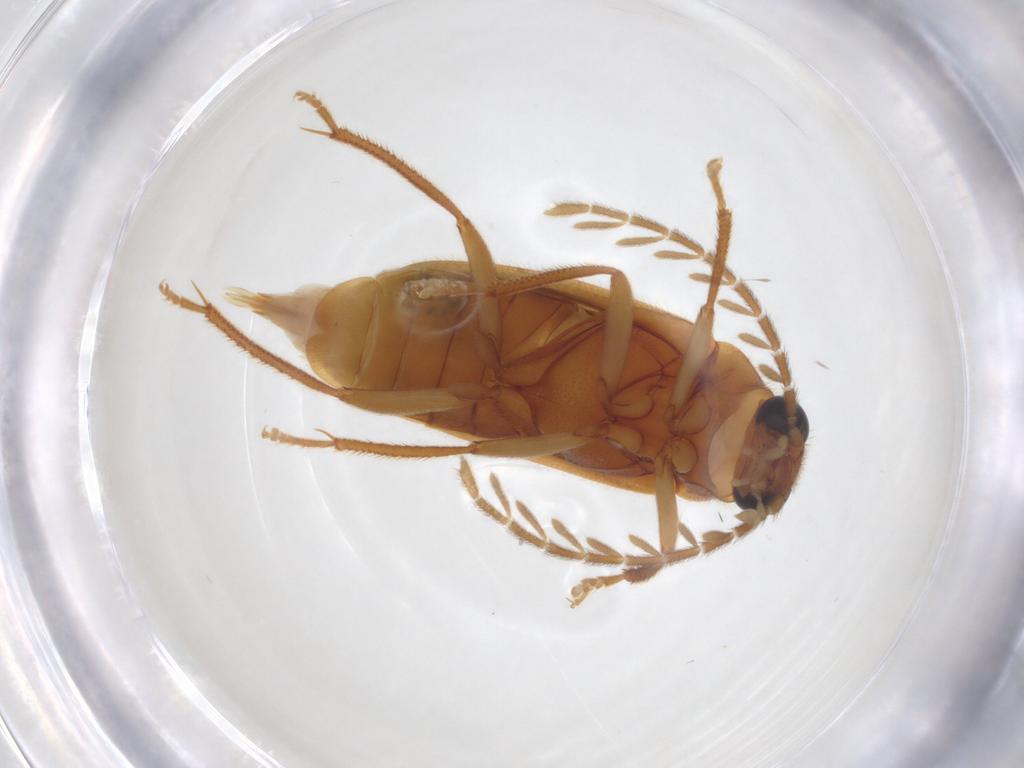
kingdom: Animalia
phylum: Arthropoda
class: Insecta
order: Coleoptera
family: Ptilodactylidae
